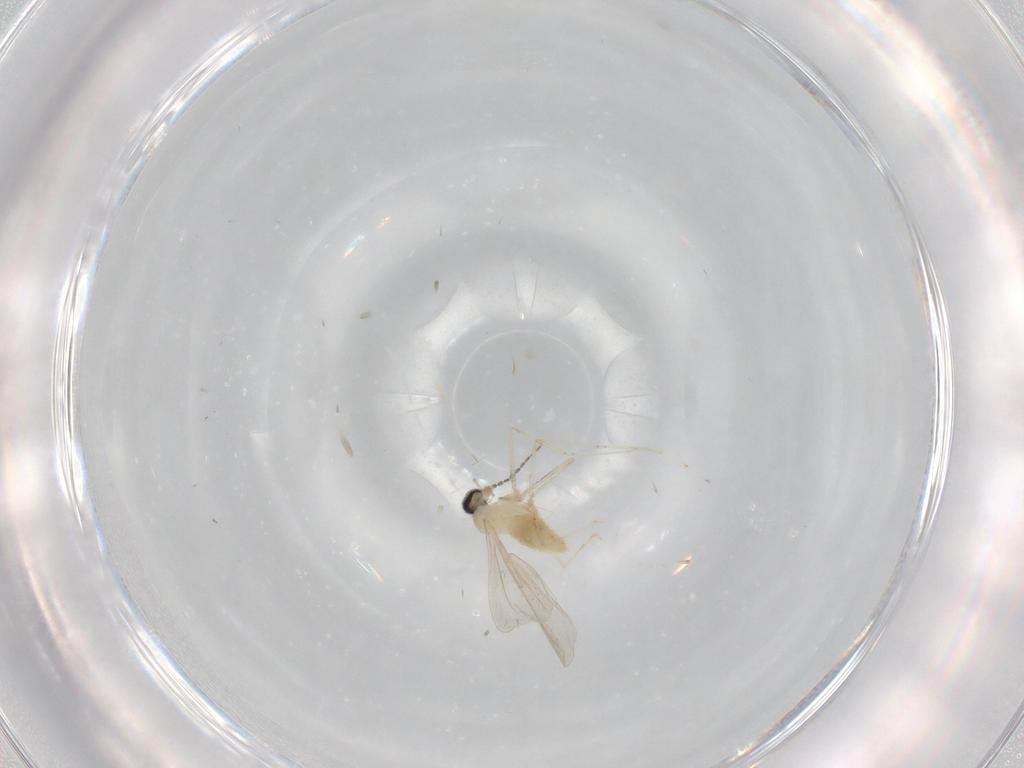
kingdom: Animalia
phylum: Arthropoda
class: Insecta
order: Diptera
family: Cecidomyiidae
